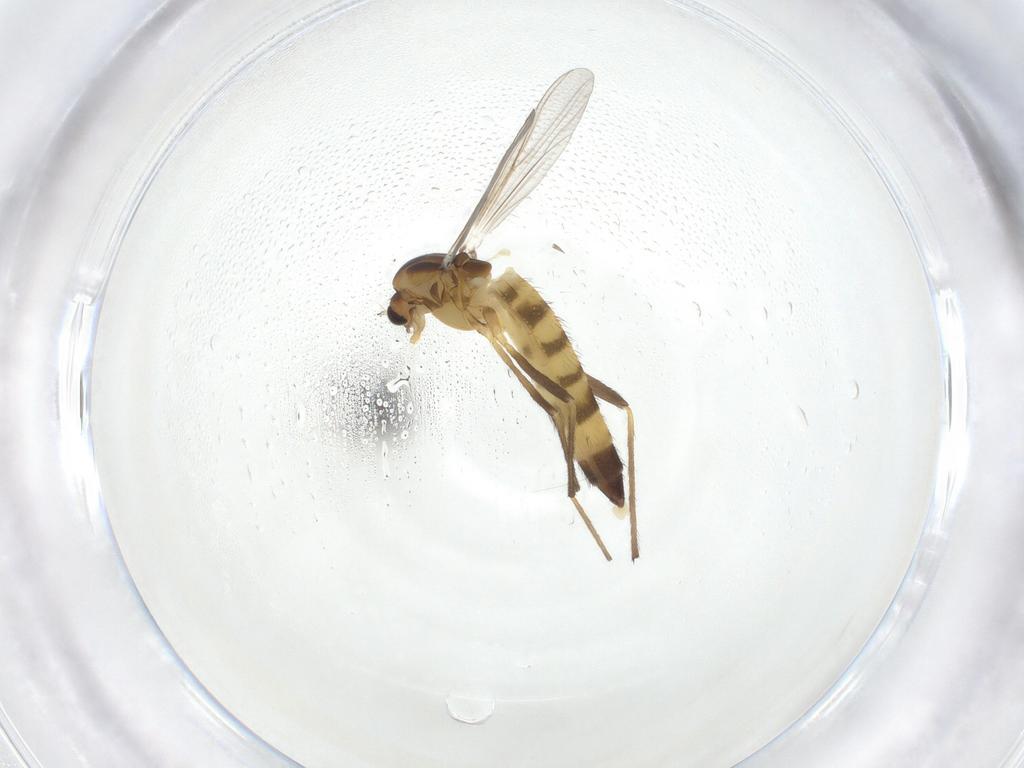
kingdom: Animalia
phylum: Arthropoda
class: Insecta
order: Diptera
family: Chironomidae
